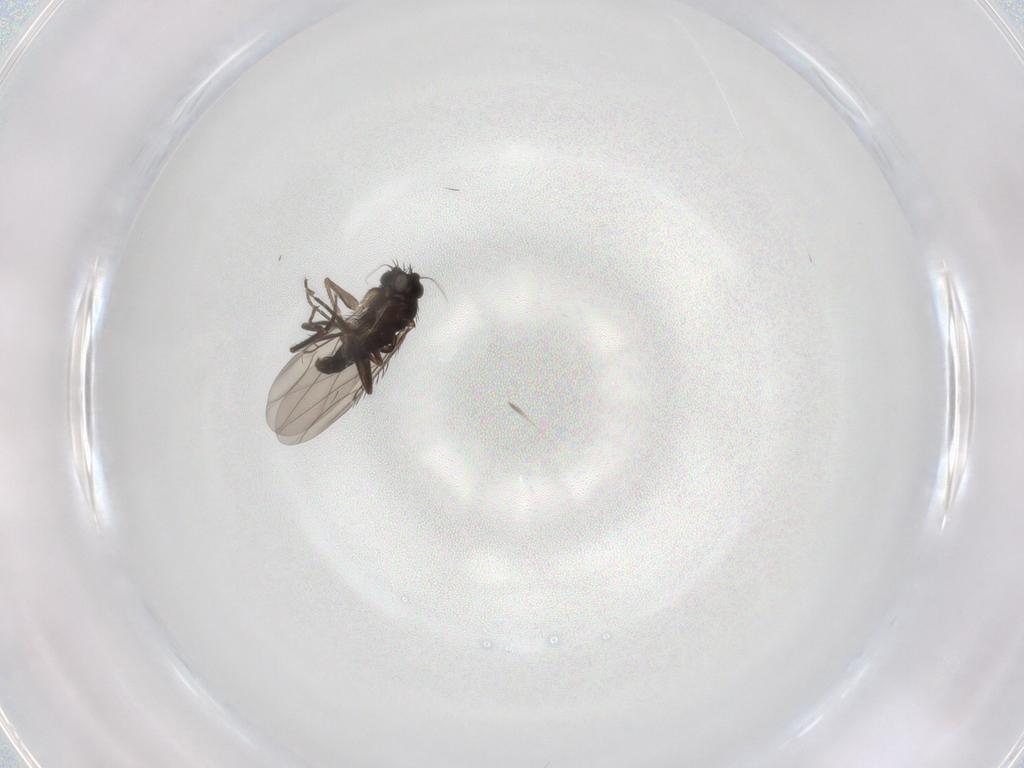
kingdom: Animalia
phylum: Arthropoda
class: Insecta
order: Diptera
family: Phoridae
